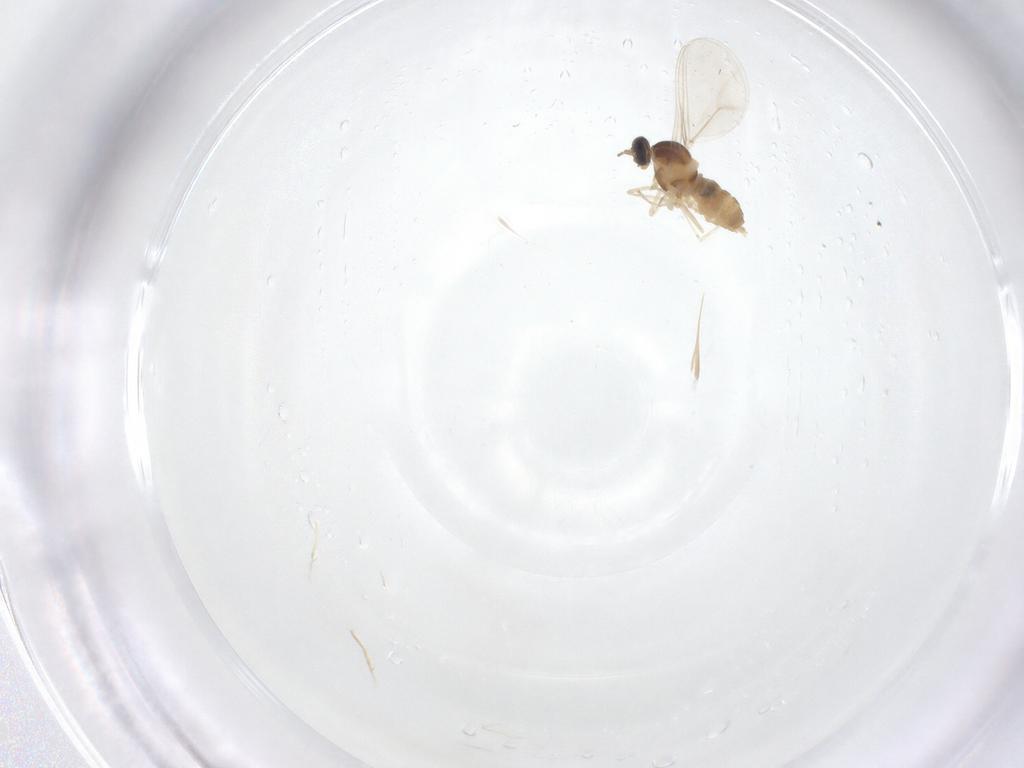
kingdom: Animalia
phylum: Arthropoda
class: Insecta
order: Diptera
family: Cecidomyiidae
